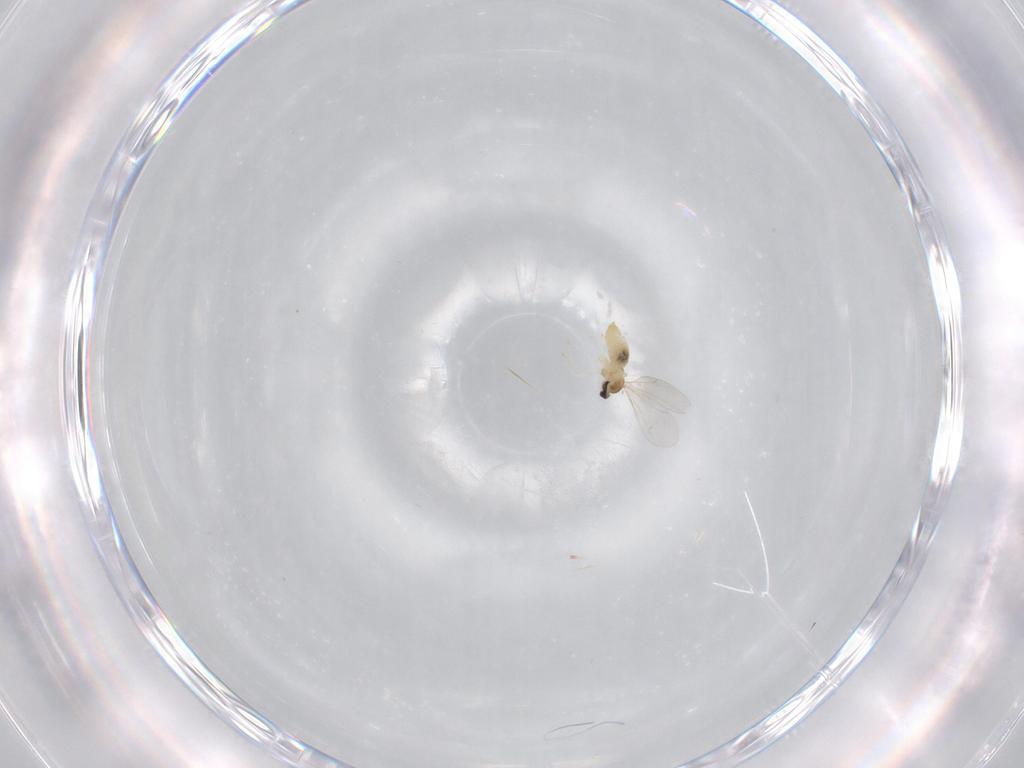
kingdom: Animalia
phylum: Arthropoda
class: Insecta
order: Diptera
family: Cecidomyiidae
